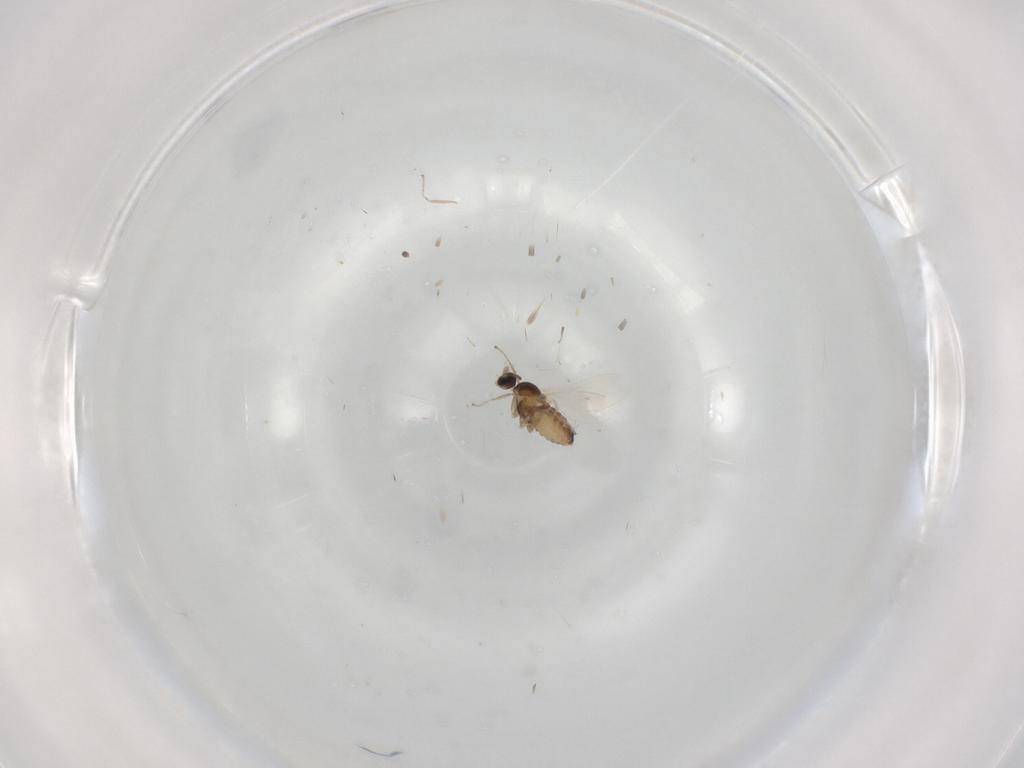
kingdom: Animalia
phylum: Arthropoda
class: Insecta
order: Diptera
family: Cecidomyiidae
